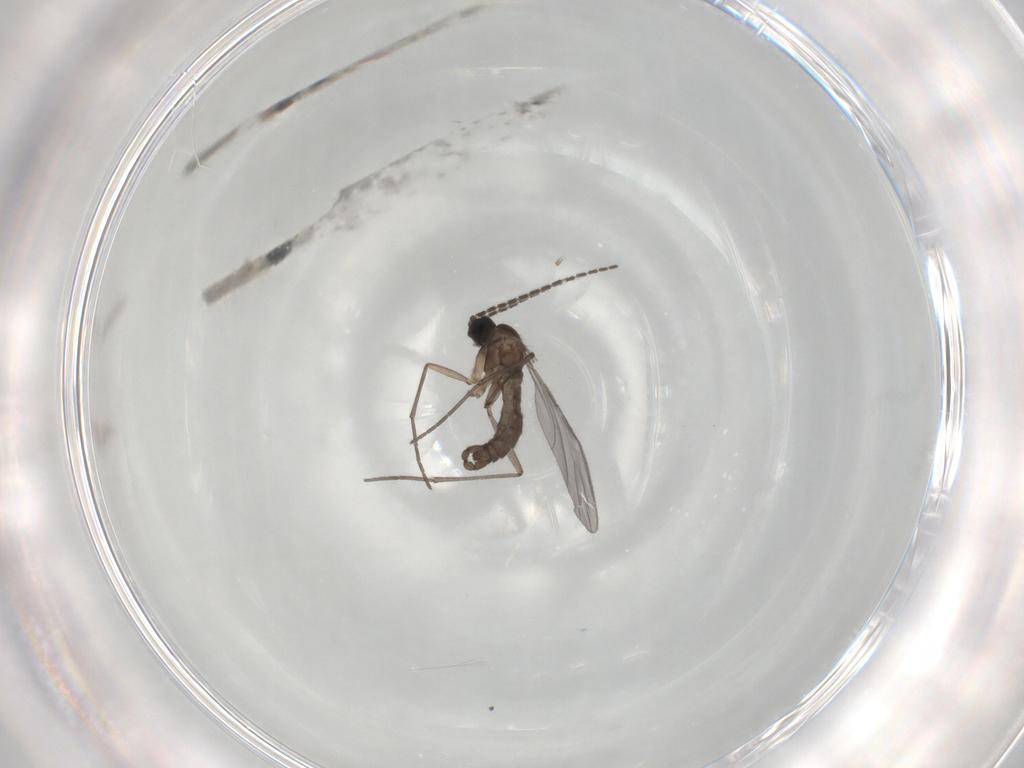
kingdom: Animalia
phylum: Arthropoda
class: Insecta
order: Diptera
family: Sciaridae
